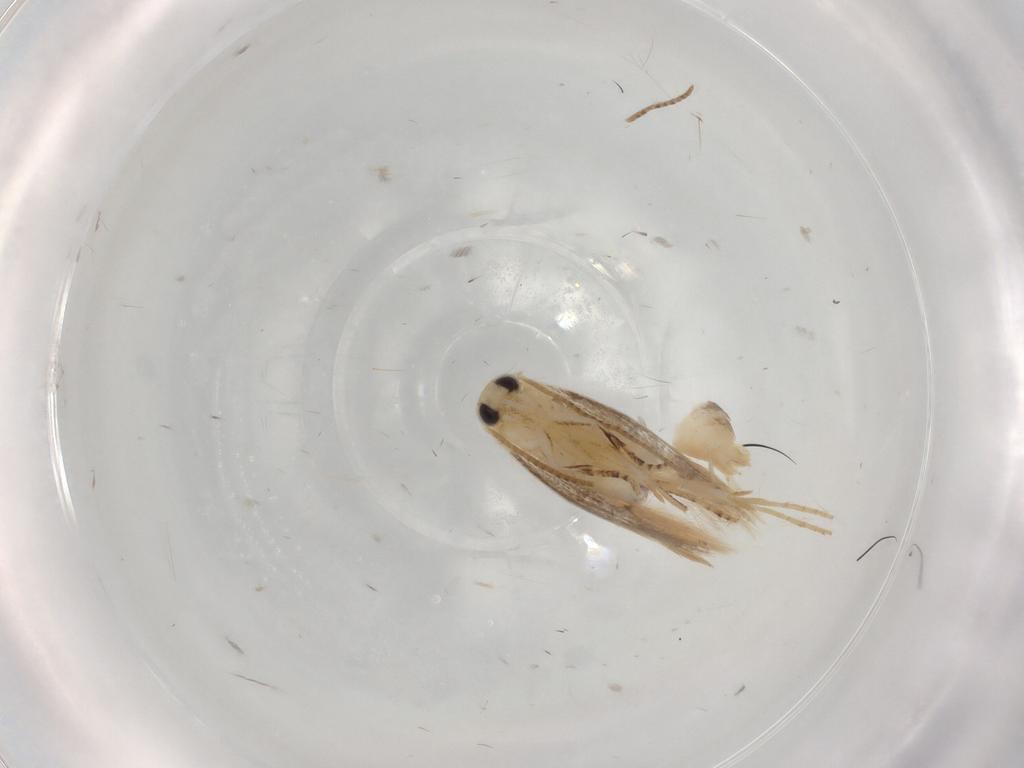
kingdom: Animalia
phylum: Arthropoda
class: Insecta
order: Lepidoptera
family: Bucculatricidae
